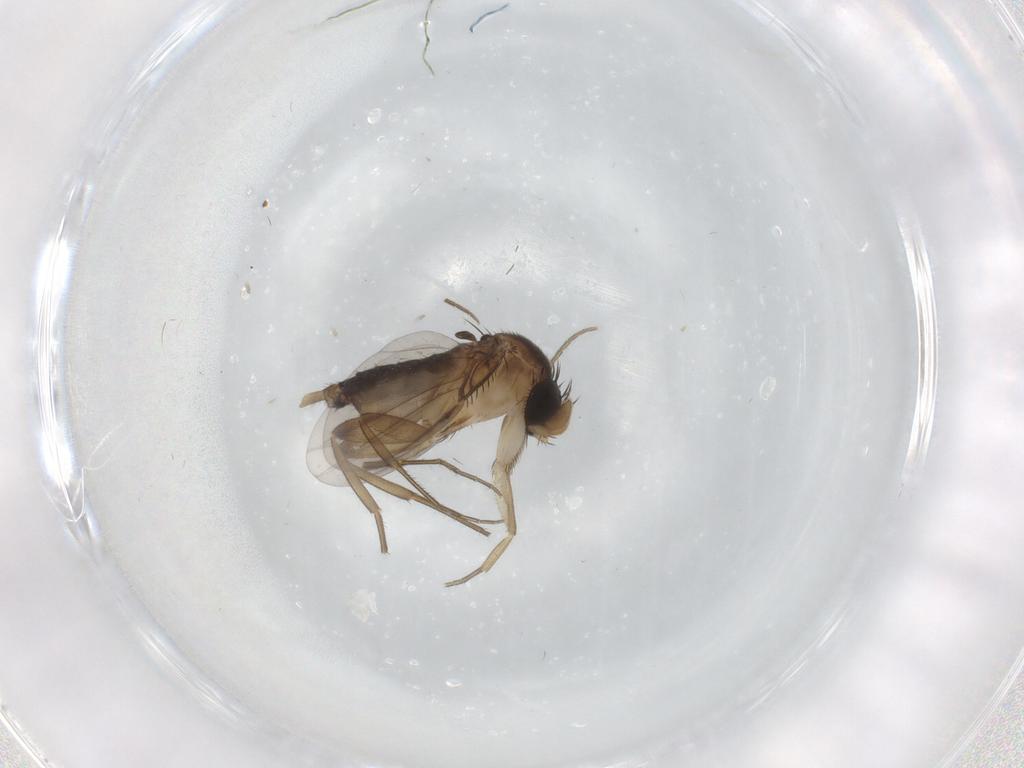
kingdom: Animalia
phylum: Arthropoda
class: Insecta
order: Diptera
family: Phoridae
